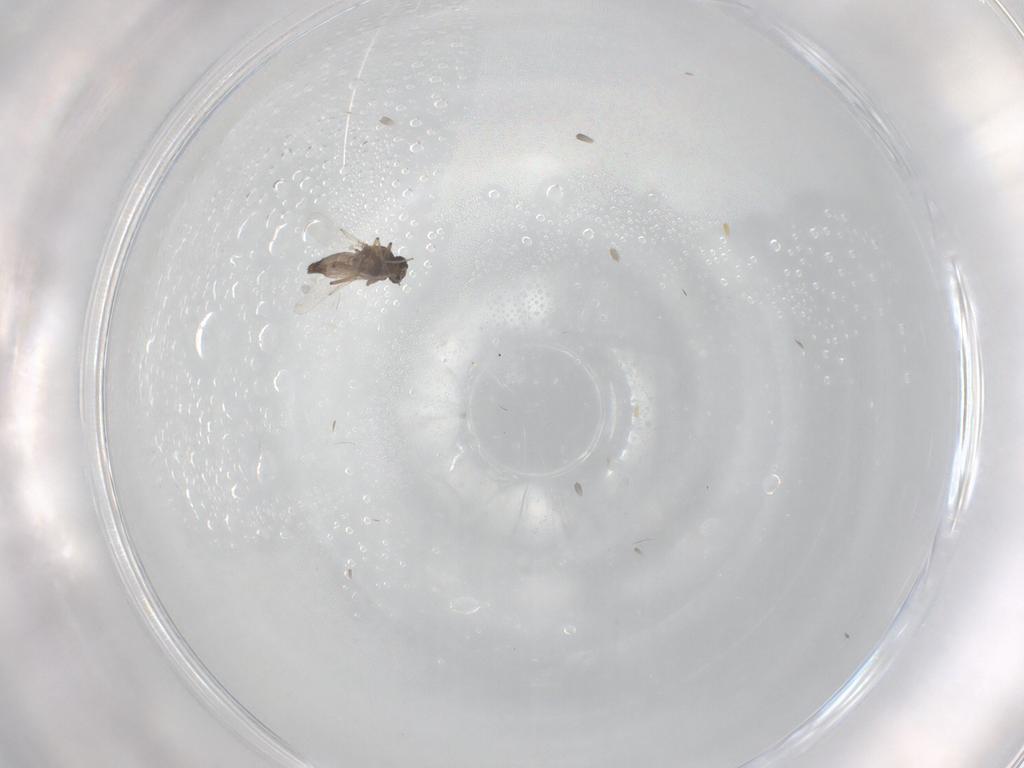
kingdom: Animalia
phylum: Arthropoda
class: Insecta
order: Diptera
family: Ceratopogonidae
